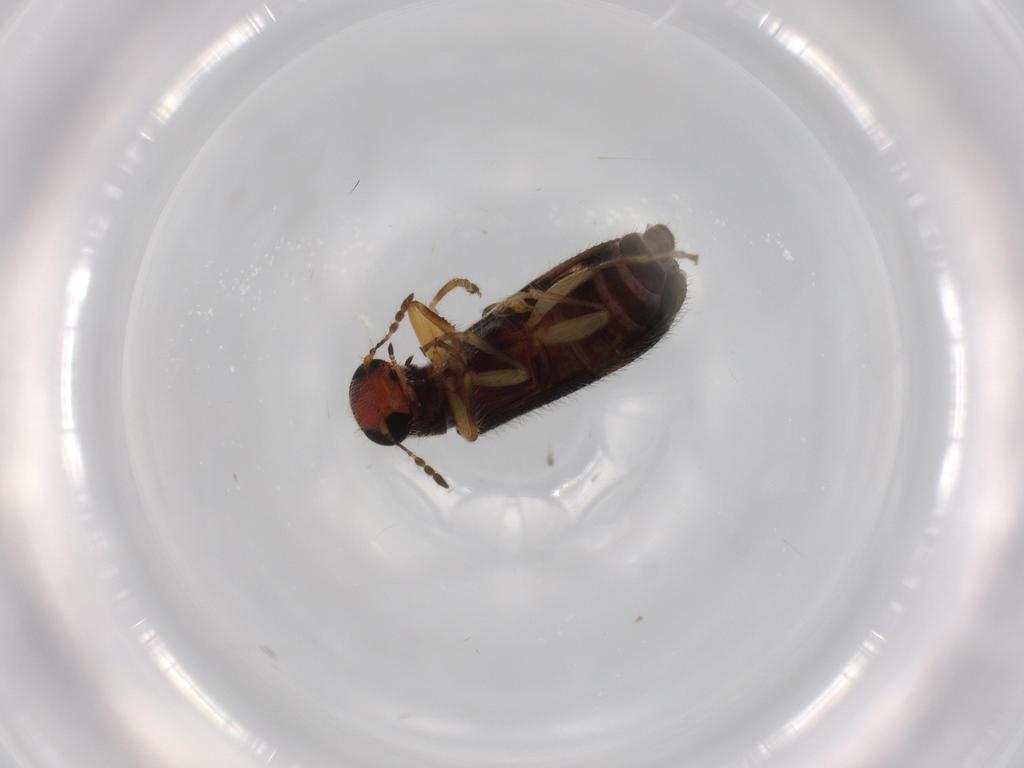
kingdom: Animalia
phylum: Arthropoda
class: Insecta
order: Coleoptera
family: Cleridae
